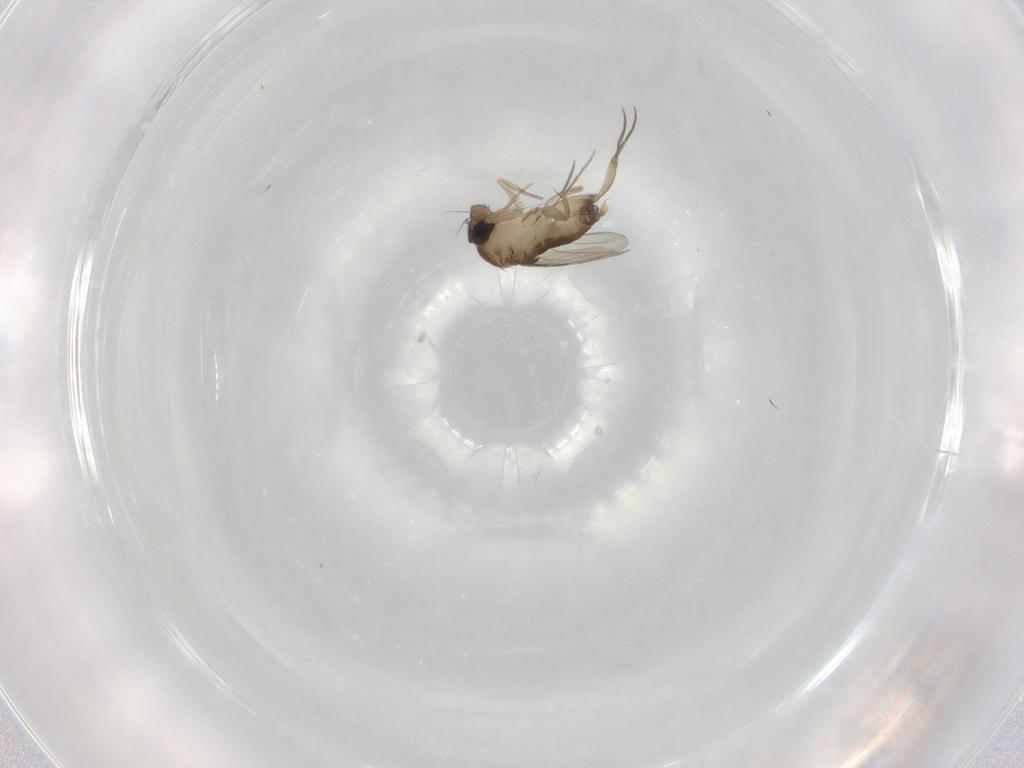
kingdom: Animalia
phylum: Arthropoda
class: Insecta
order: Diptera
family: Phoridae
